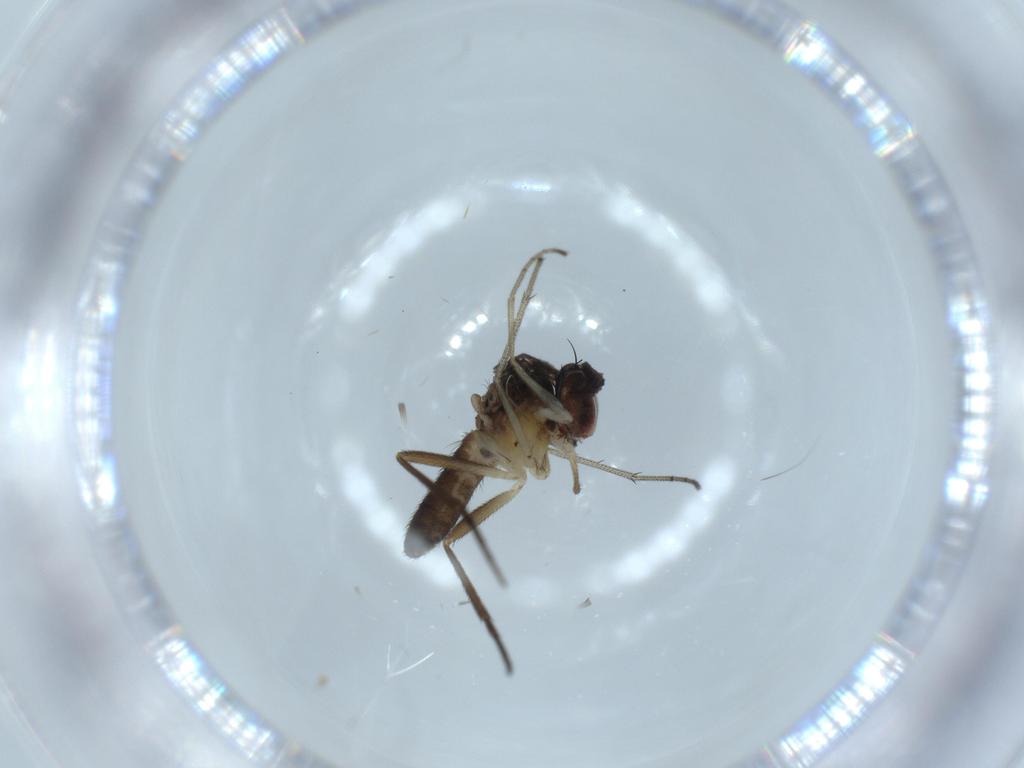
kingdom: Animalia
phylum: Arthropoda
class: Insecta
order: Diptera
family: Dolichopodidae
